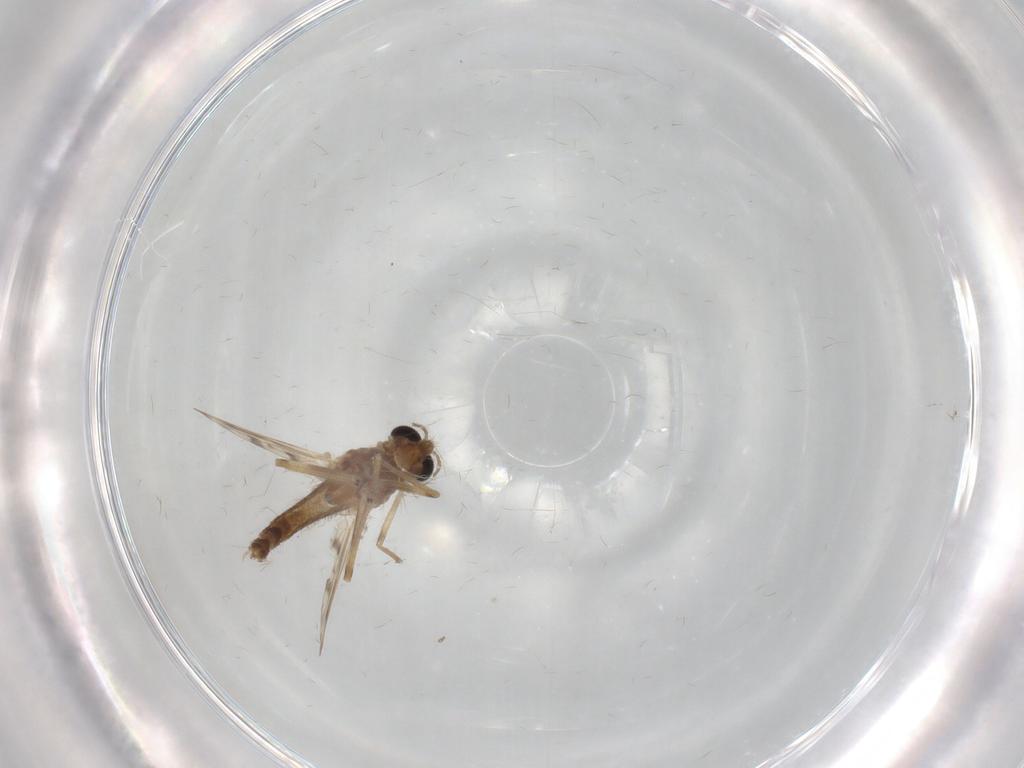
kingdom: Animalia
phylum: Arthropoda
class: Insecta
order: Diptera
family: Chironomidae
